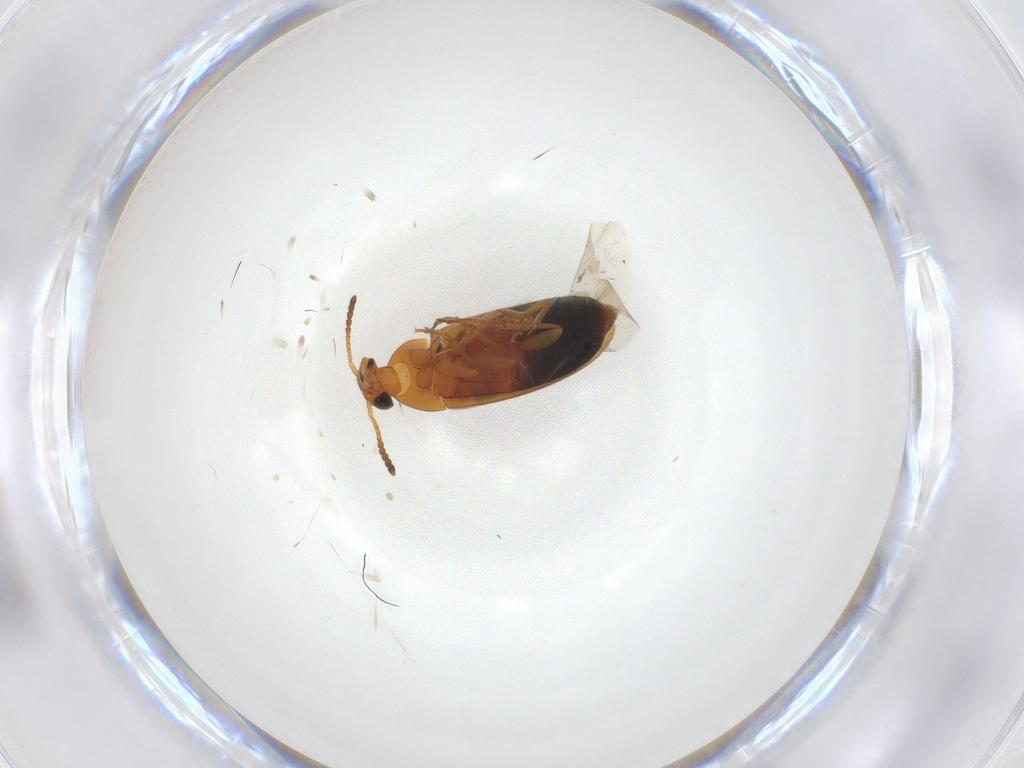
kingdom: Animalia
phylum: Arthropoda
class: Insecta
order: Coleoptera
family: Scraptiidae
